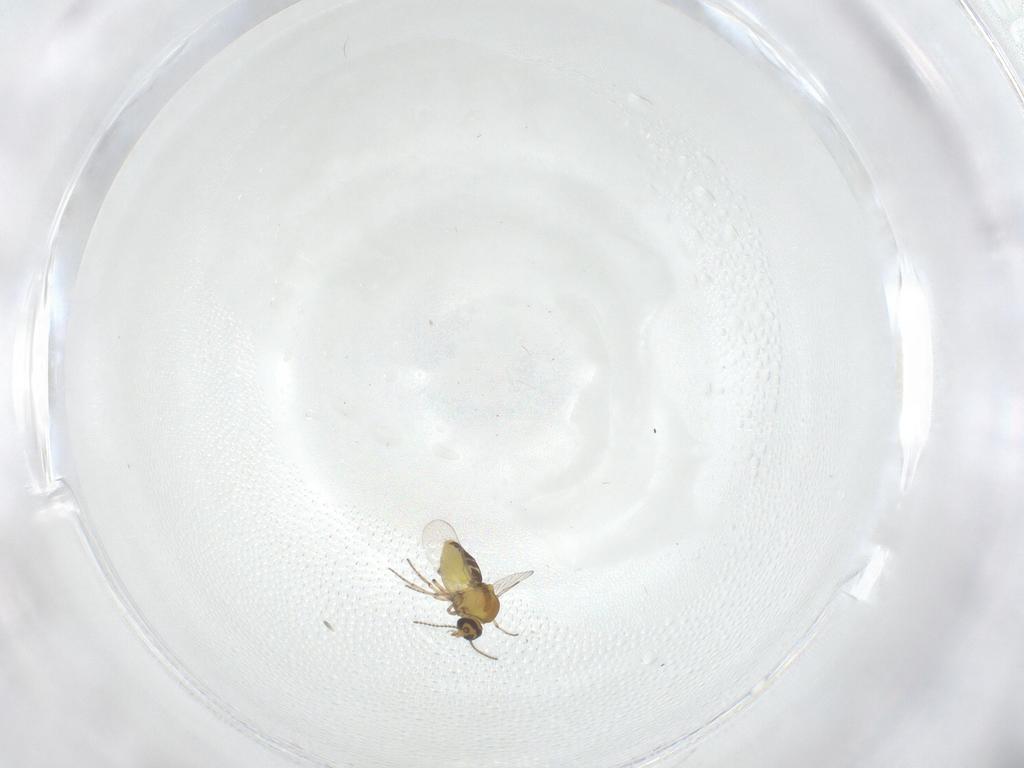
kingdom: Animalia
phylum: Arthropoda
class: Insecta
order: Diptera
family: Ceratopogonidae
